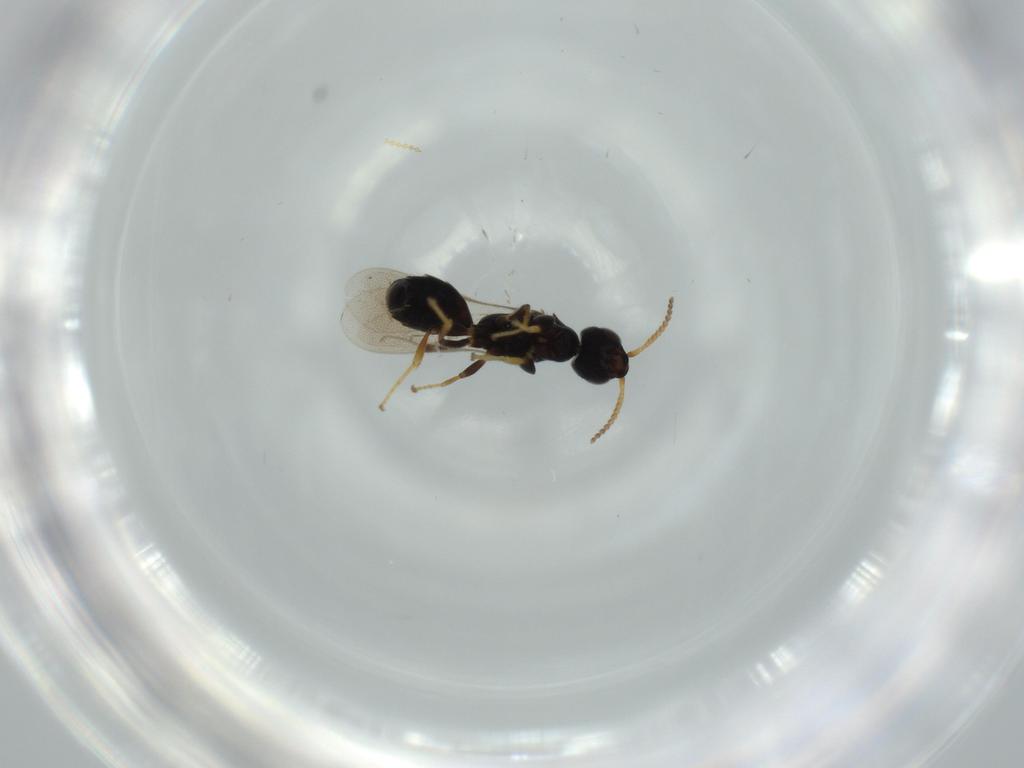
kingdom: Animalia
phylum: Arthropoda
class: Insecta
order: Hymenoptera
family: Bethylidae
